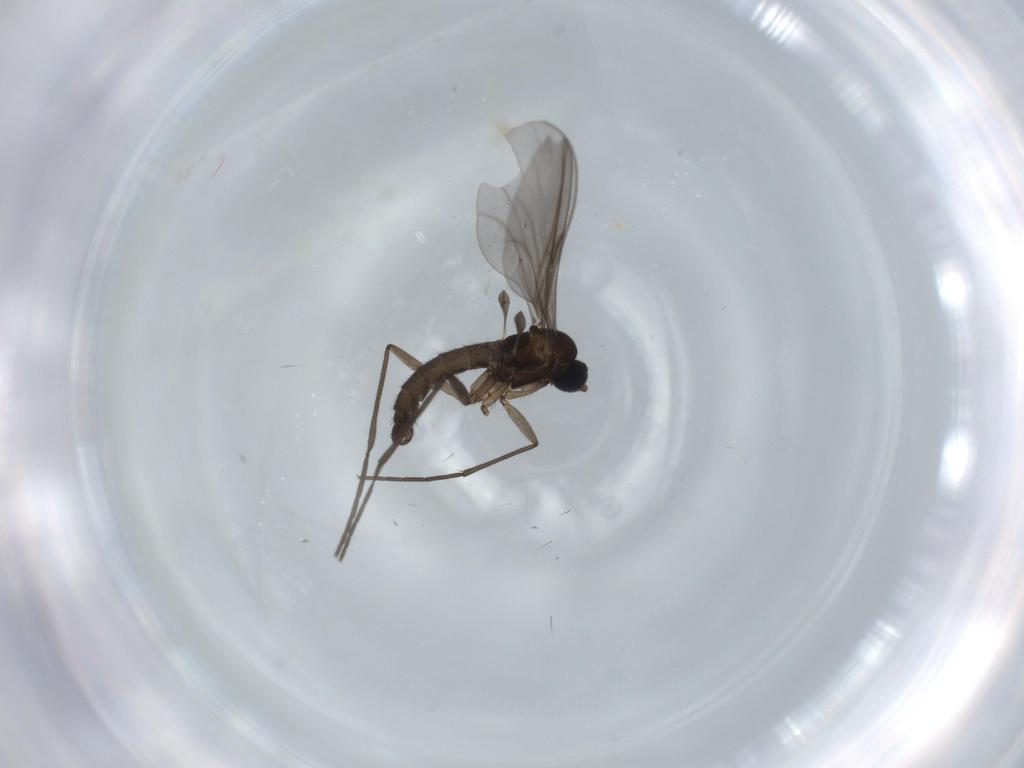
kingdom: Animalia
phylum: Arthropoda
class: Insecta
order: Diptera
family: Sciaridae
